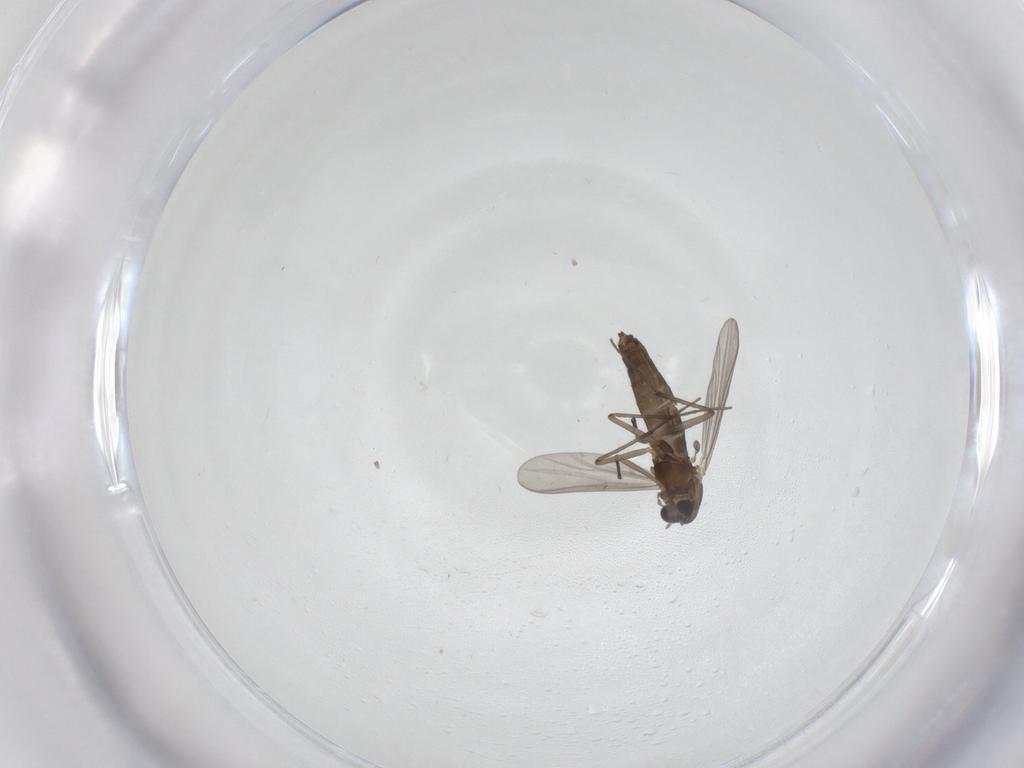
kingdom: Animalia
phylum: Arthropoda
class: Insecta
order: Diptera
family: Chironomidae
